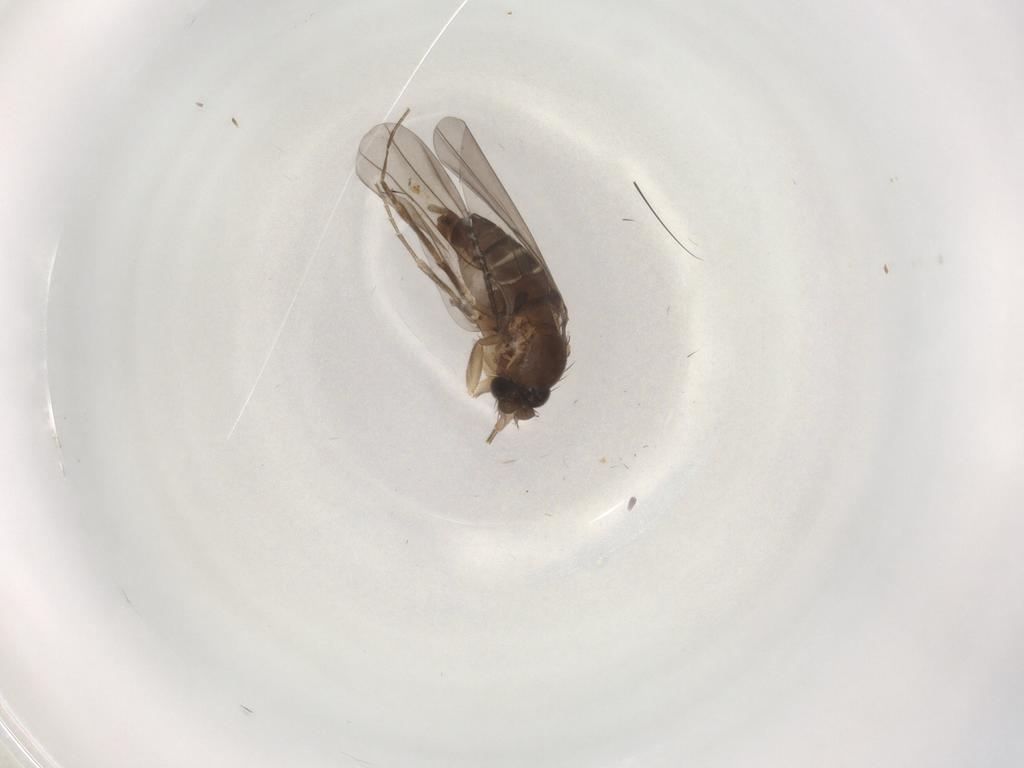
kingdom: Animalia
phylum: Arthropoda
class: Insecta
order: Diptera
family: Phoridae
